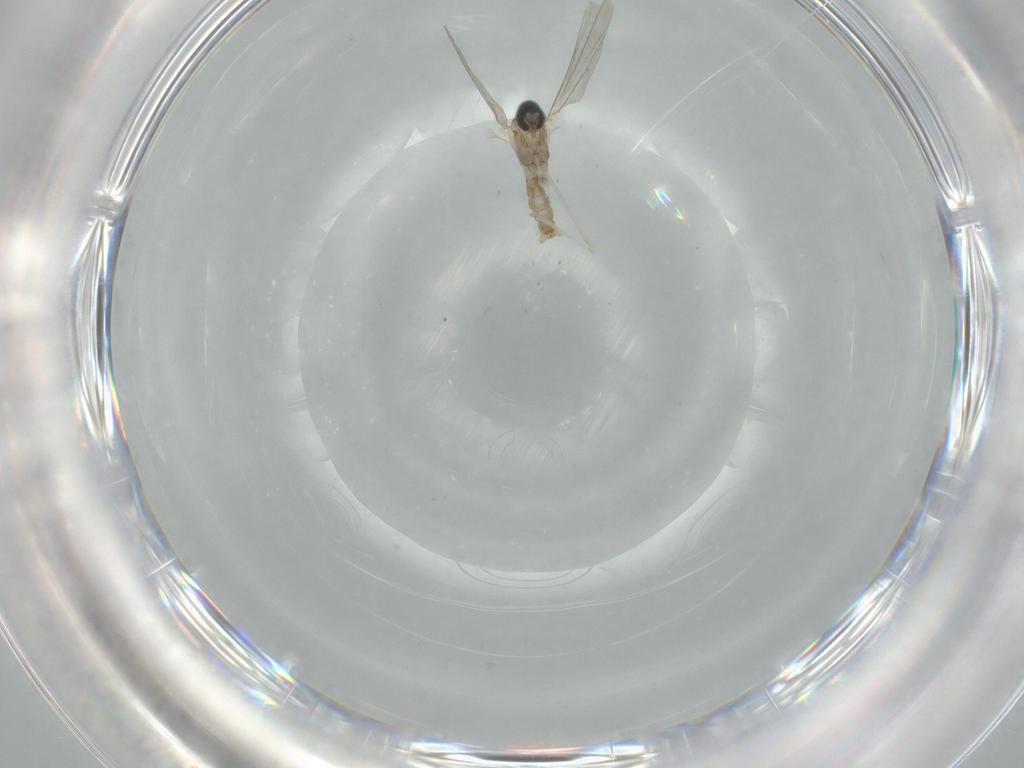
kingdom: Animalia
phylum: Arthropoda
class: Insecta
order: Diptera
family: Cecidomyiidae
